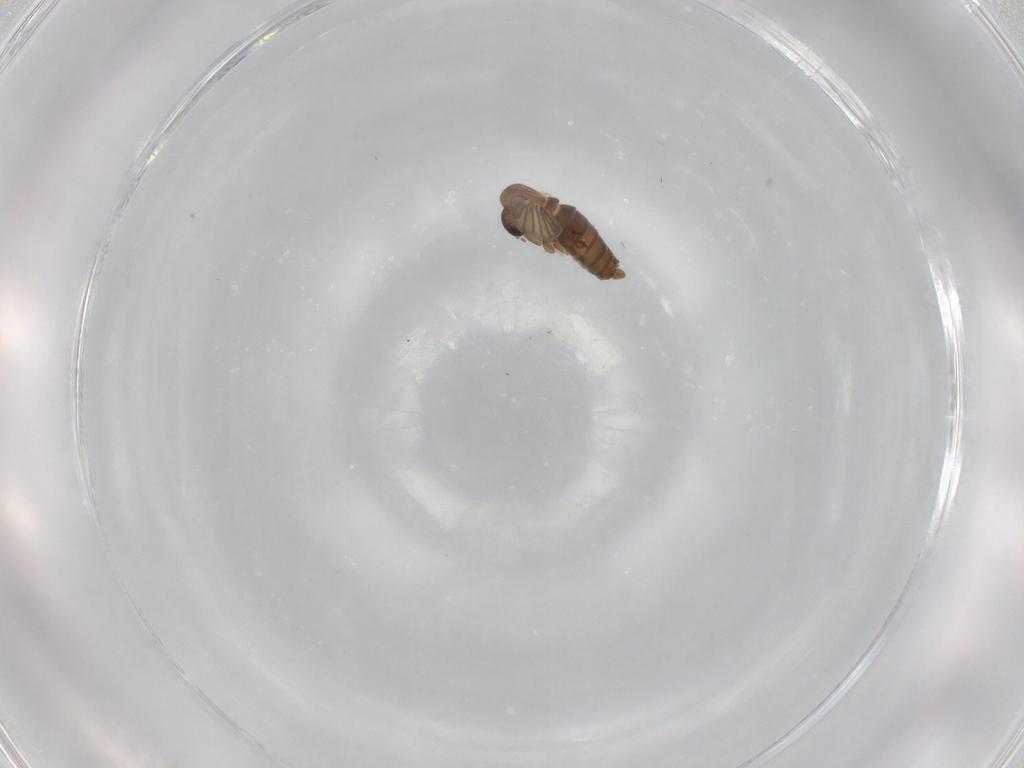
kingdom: Animalia
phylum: Arthropoda
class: Insecta
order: Diptera
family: Psychodidae
